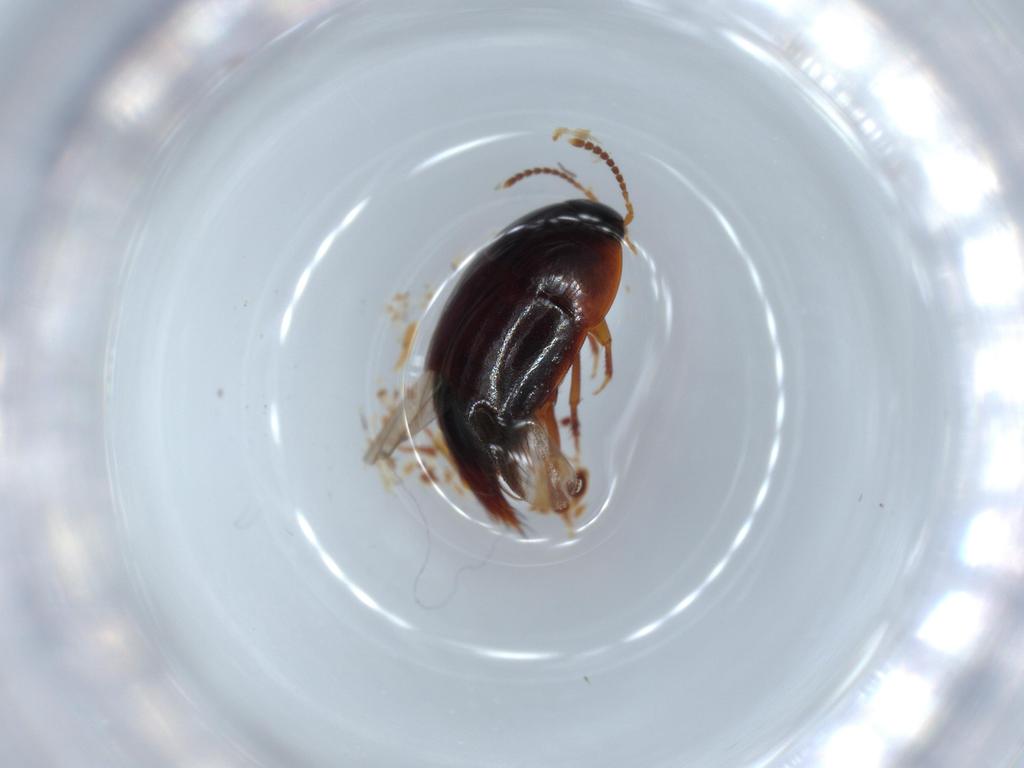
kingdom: Animalia
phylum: Arthropoda
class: Insecta
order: Coleoptera
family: Staphylinidae
